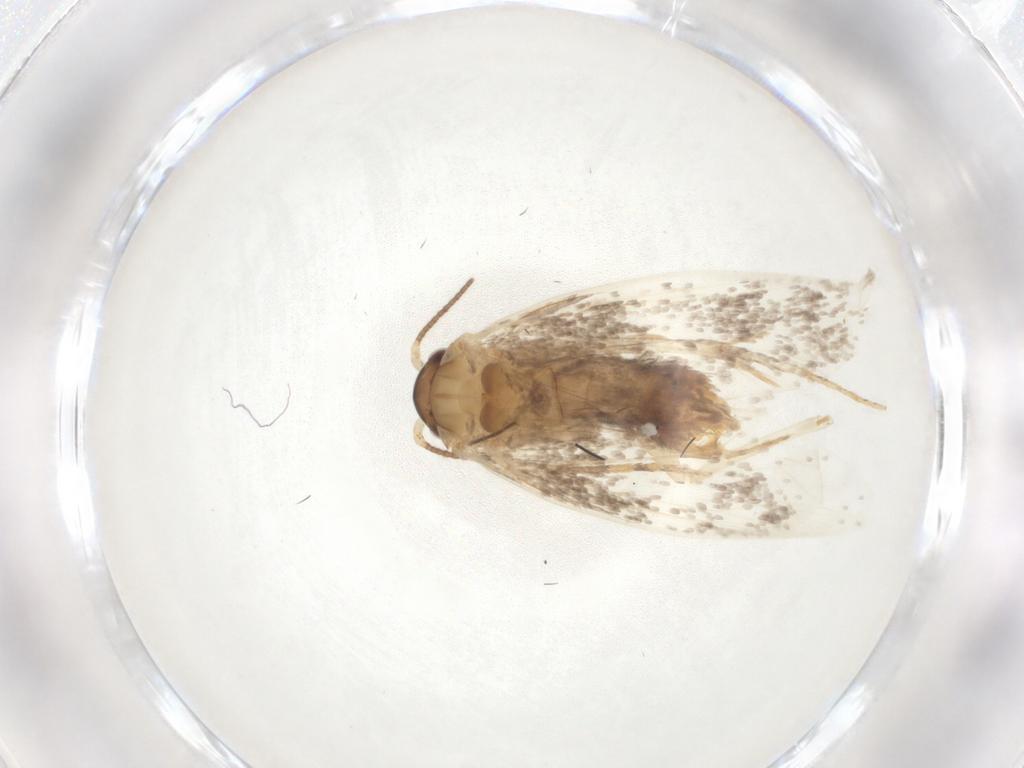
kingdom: Animalia
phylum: Arthropoda
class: Insecta
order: Lepidoptera
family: Dryadaulidae
